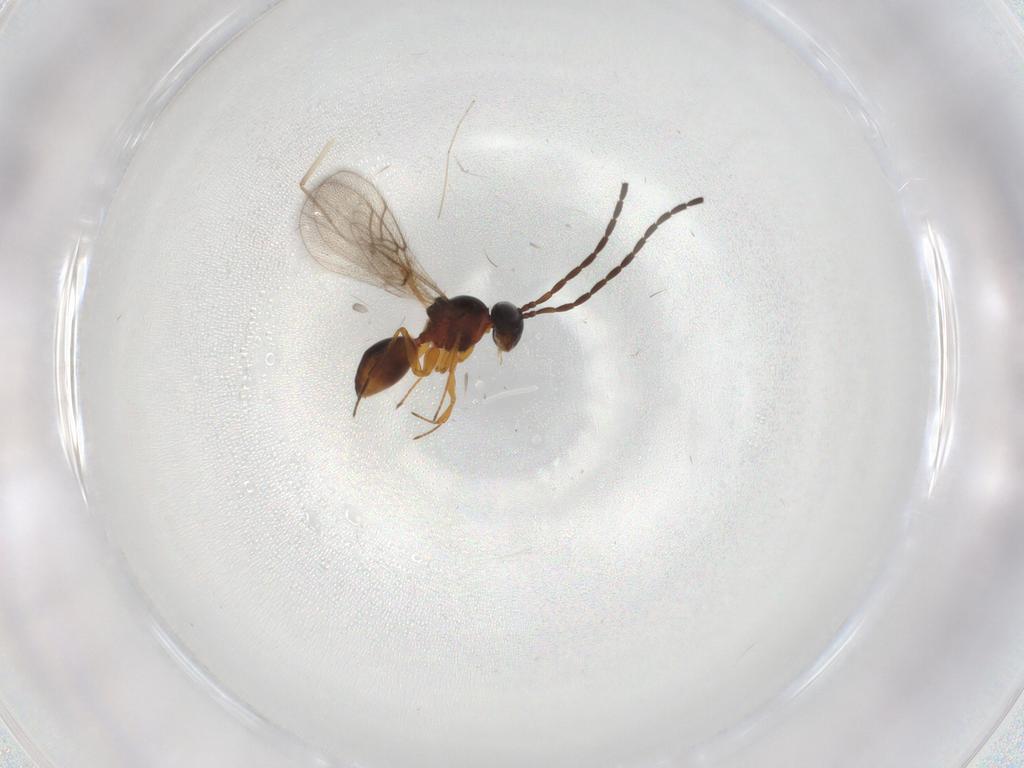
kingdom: Animalia
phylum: Arthropoda
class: Insecta
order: Hymenoptera
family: Figitidae
